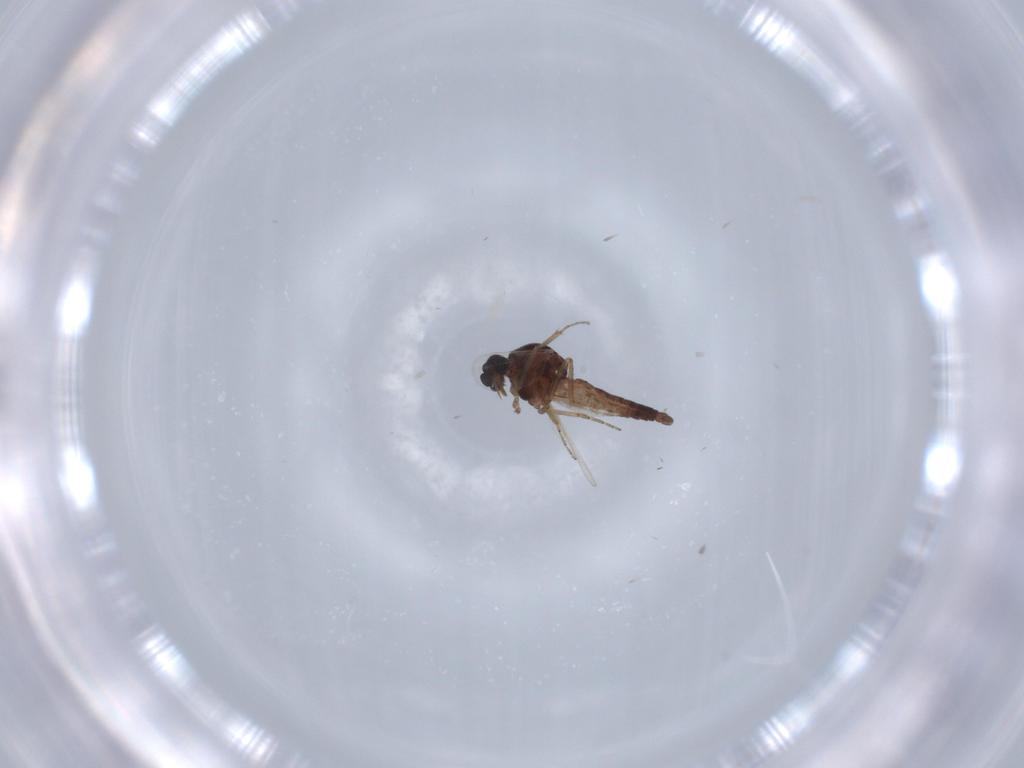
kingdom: Animalia
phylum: Arthropoda
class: Insecta
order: Diptera
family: Ceratopogonidae
